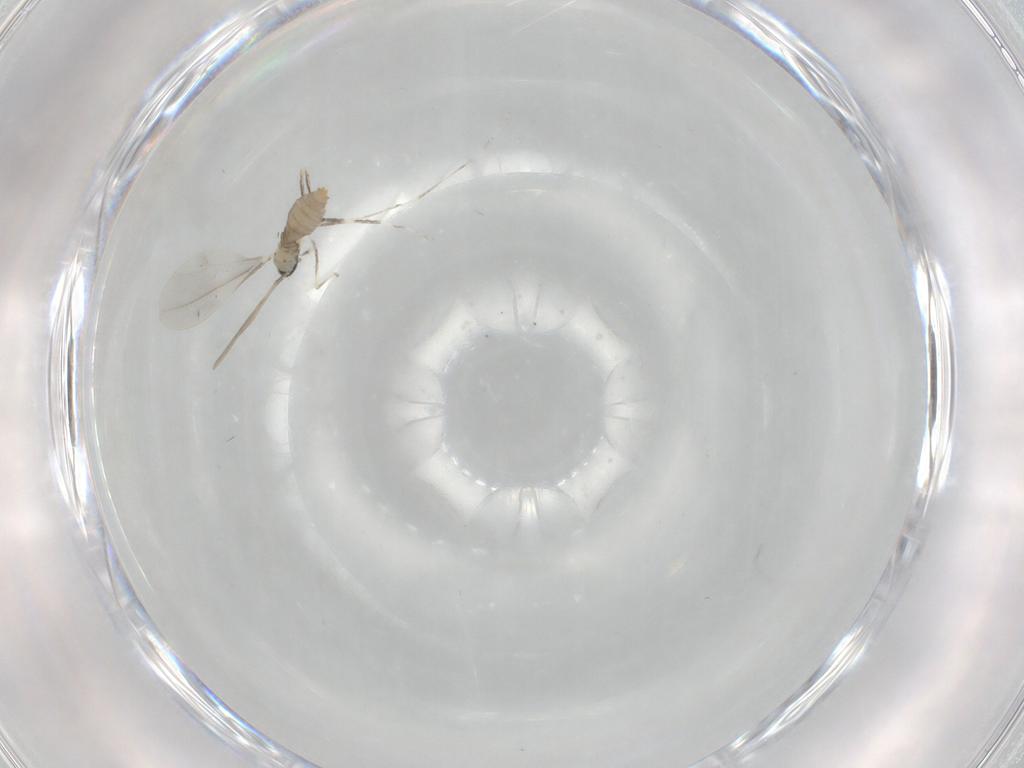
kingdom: Animalia
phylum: Arthropoda
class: Insecta
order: Diptera
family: Cecidomyiidae
